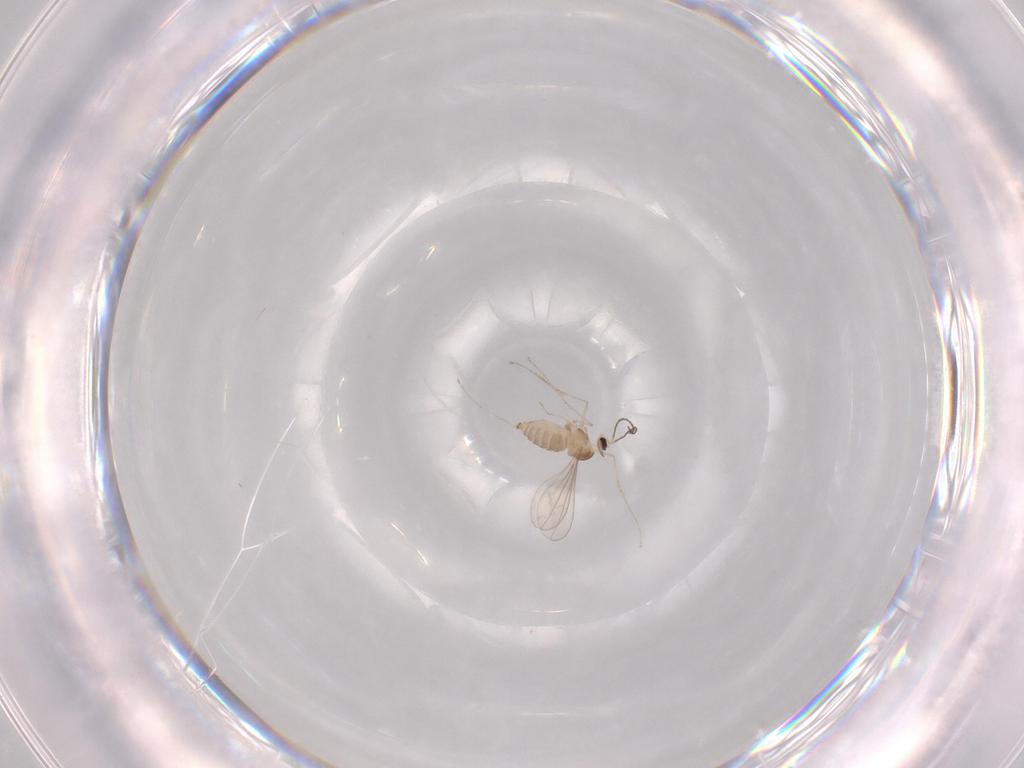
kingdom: Animalia
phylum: Arthropoda
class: Insecta
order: Diptera
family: Cecidomyiidae
